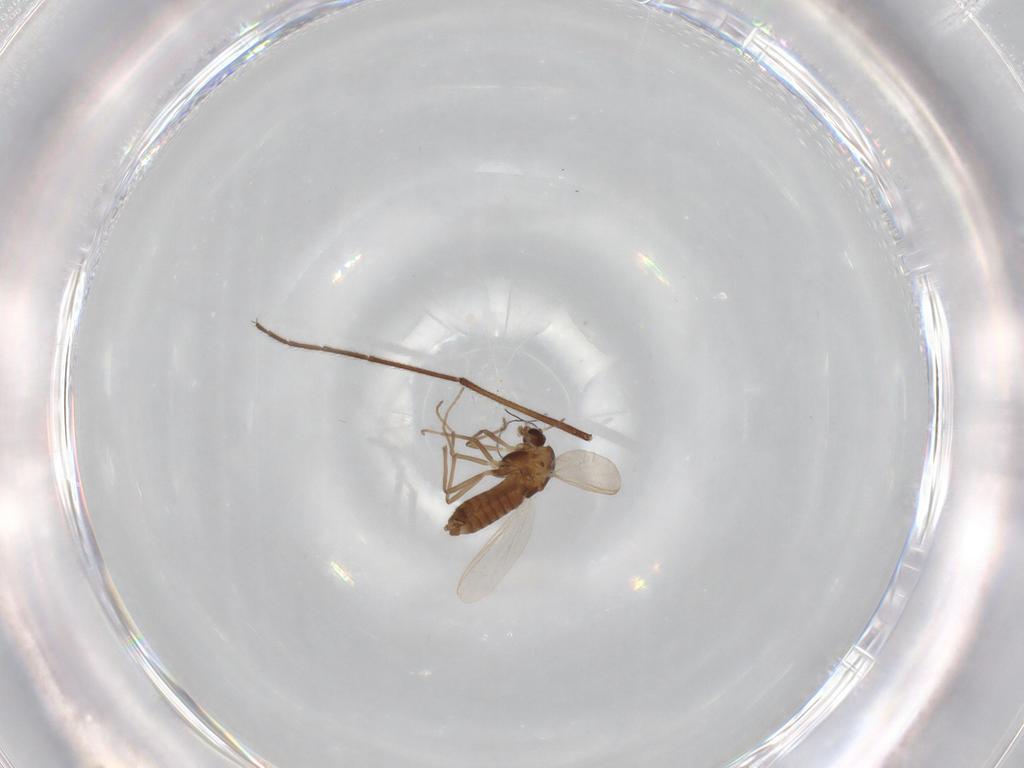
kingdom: Animalia
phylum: Arthropoda
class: Insecta
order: Diptera
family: Chironomidae
